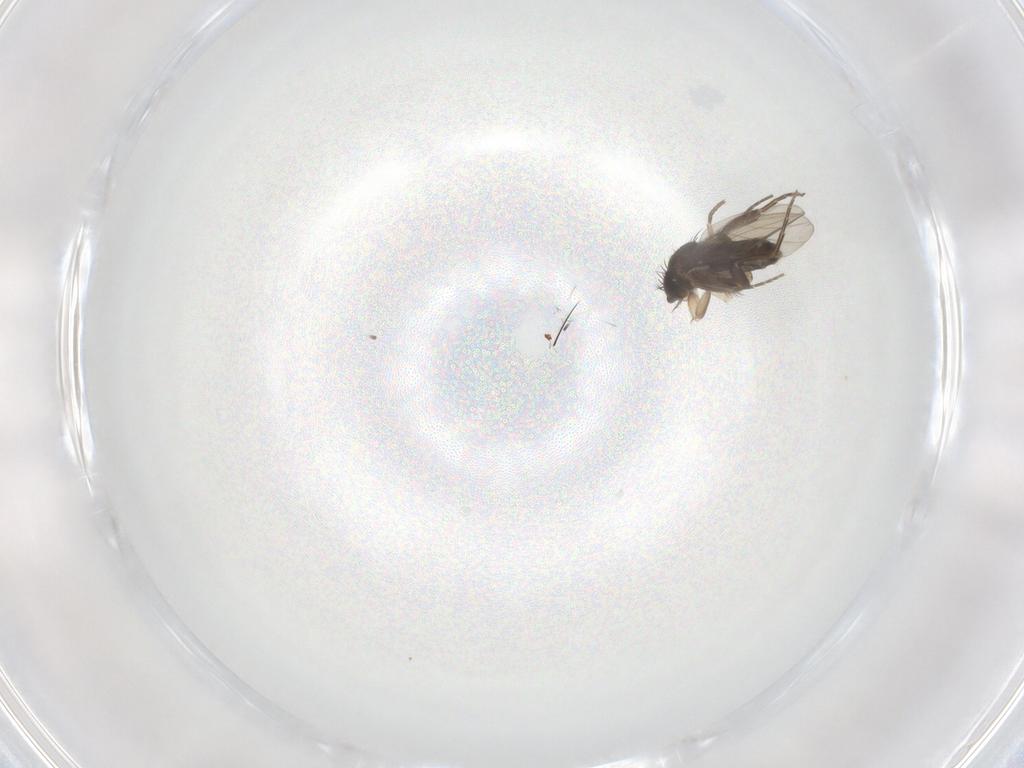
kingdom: Animalia
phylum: Arthropoda
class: Insecta
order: Diptera
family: Phoridae
